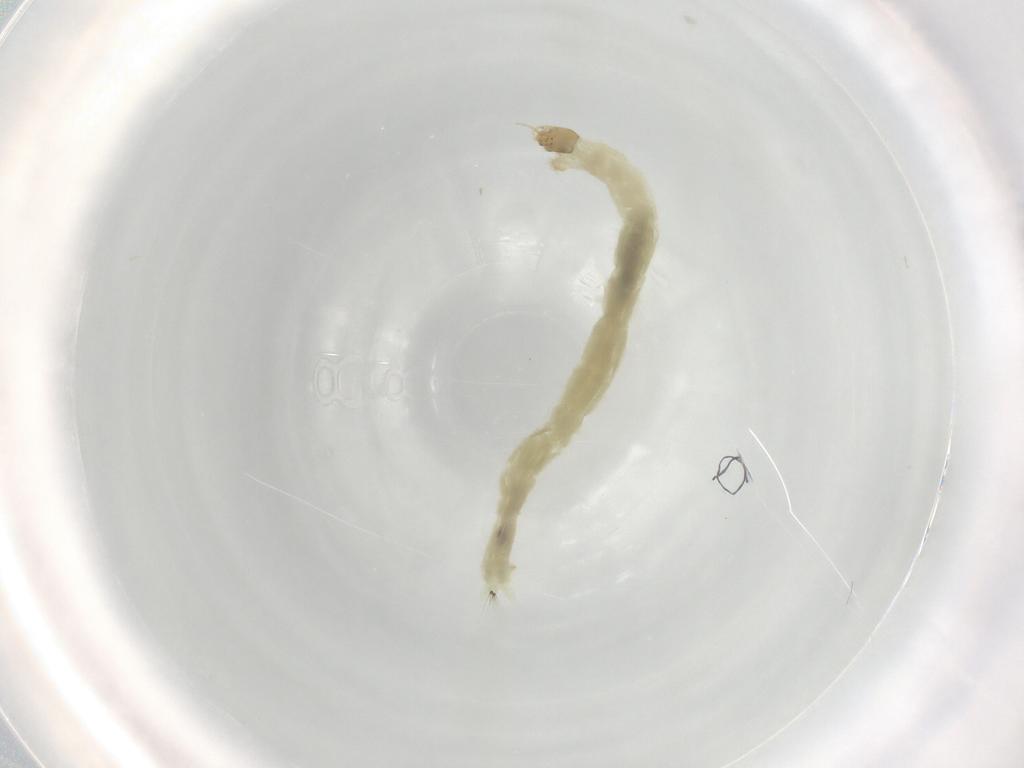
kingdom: Animalia
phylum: Arthropoda
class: Insecta
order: Diptera
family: Chironomidae
